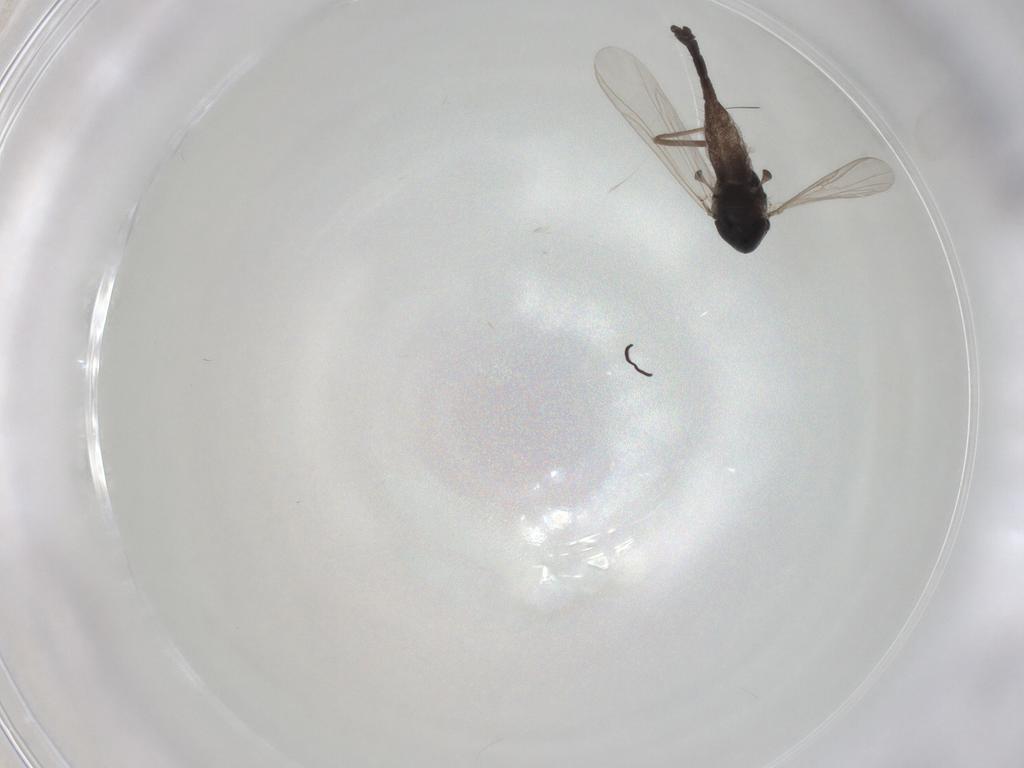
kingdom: Animalia
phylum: Arthropoda
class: Insecta
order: Diptera
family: Chironomidae
